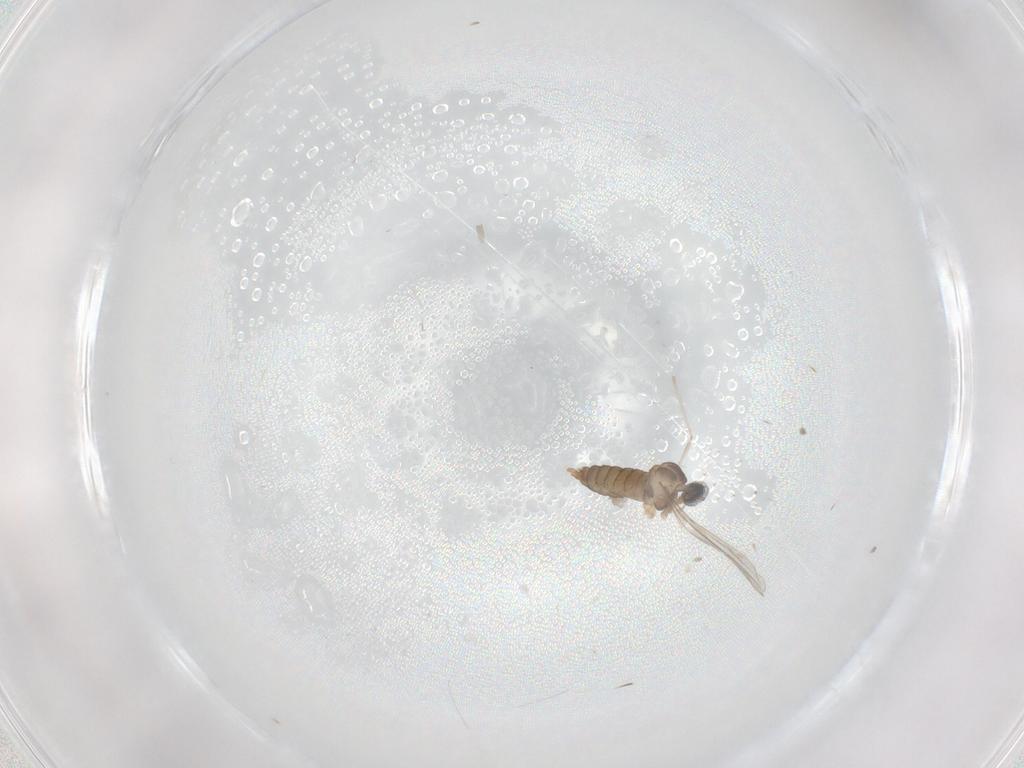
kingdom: Animalia
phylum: Arthropoda
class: Insecta
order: Diptera
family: Cecidomyiidae
